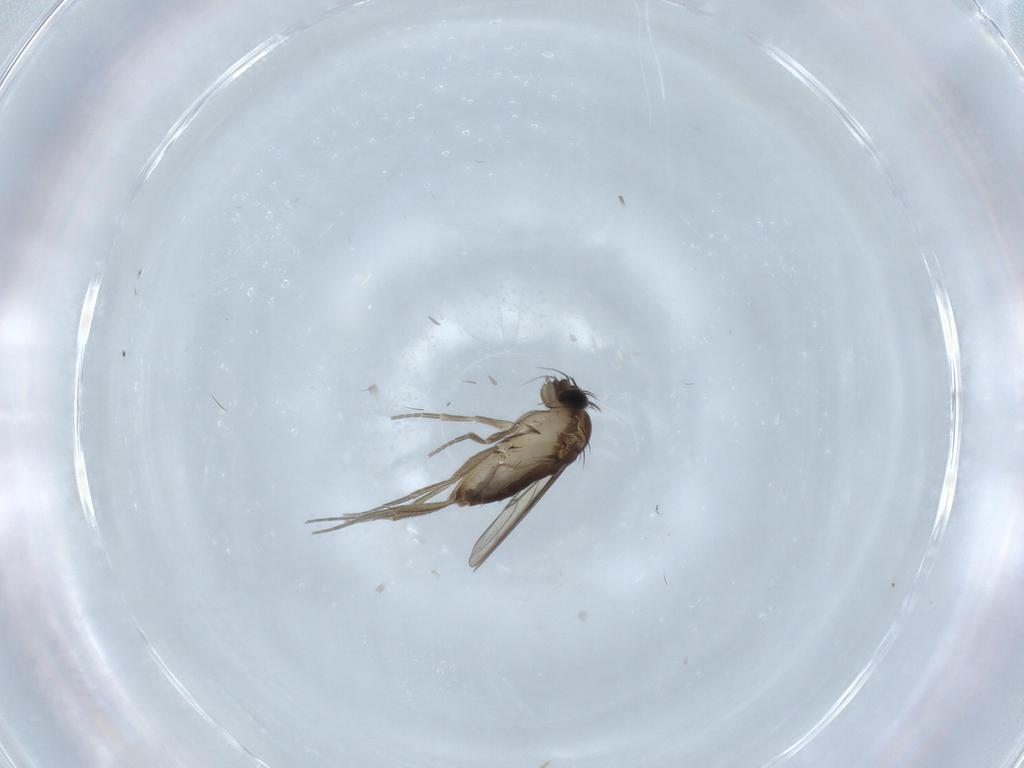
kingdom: Animalia
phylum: Arthropoda
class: Insecta
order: Diptera
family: Phoridae
